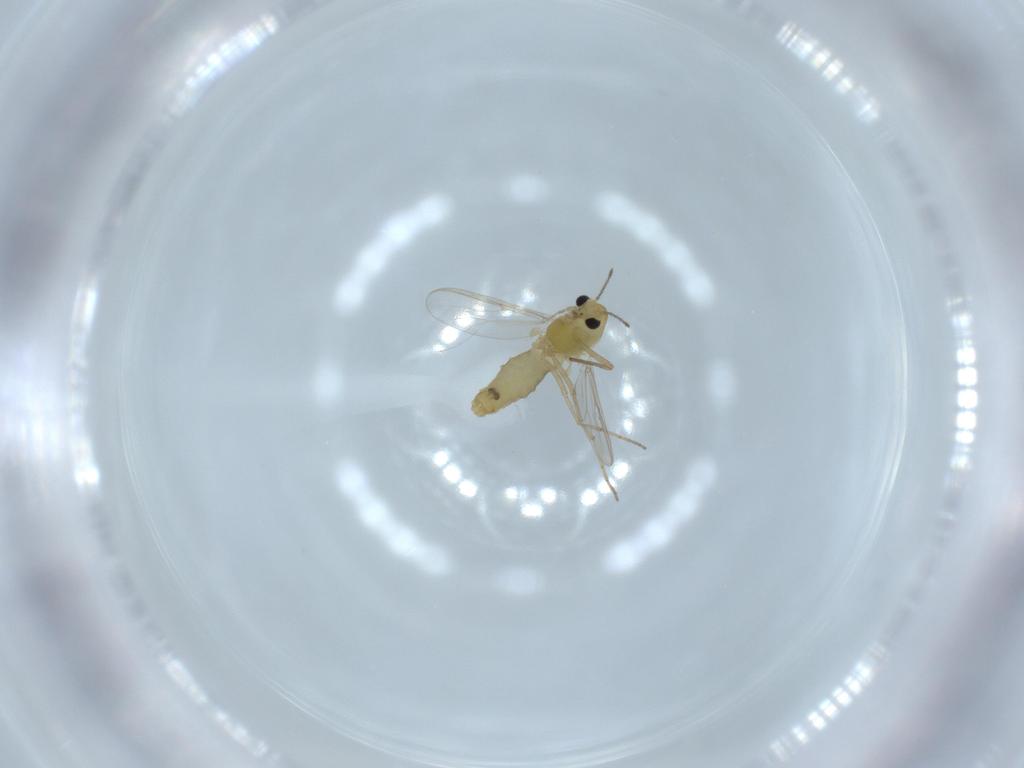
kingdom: Animalia
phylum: Arthropoda
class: Insecta
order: Diptera
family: Chironomidae
